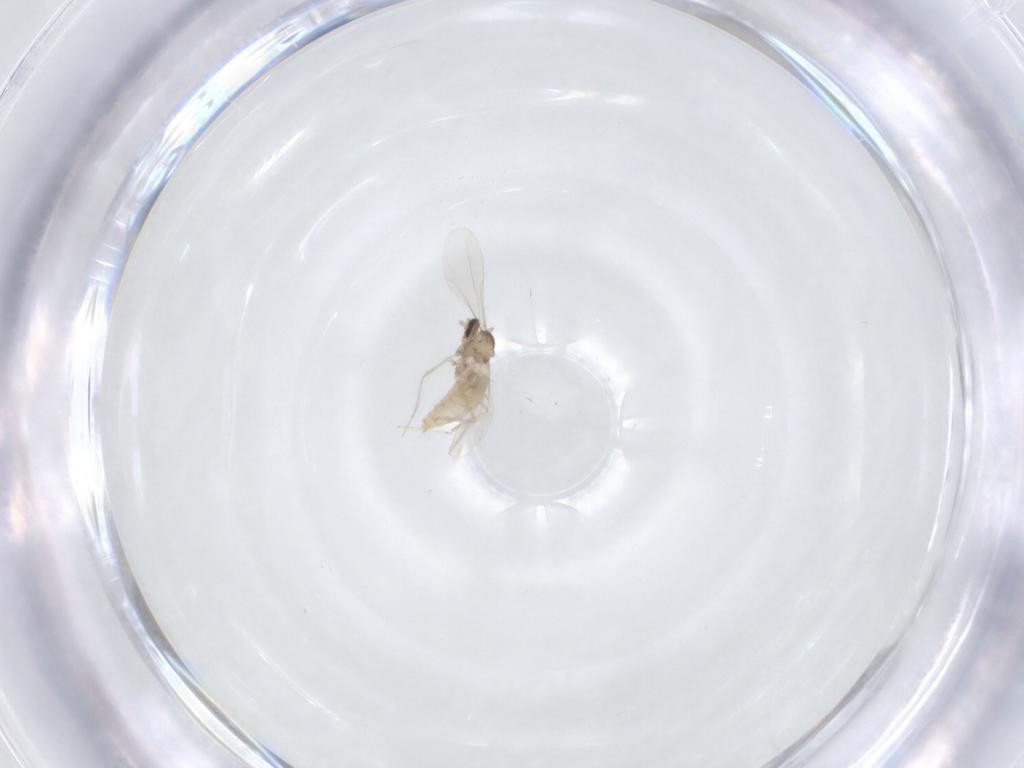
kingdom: Animalia
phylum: Arthropoda
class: Insecta
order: Diptera
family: Cecidomyiidae
